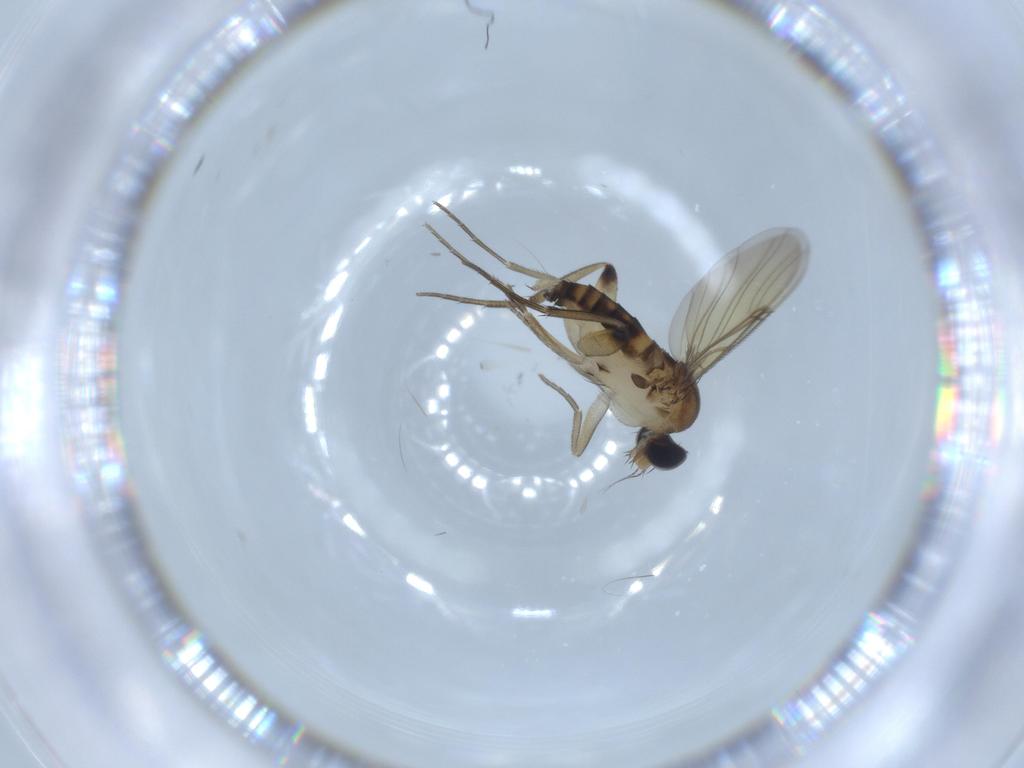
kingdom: Animalia
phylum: Arthropoda
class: Insecta
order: Diptera
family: Phoridae
